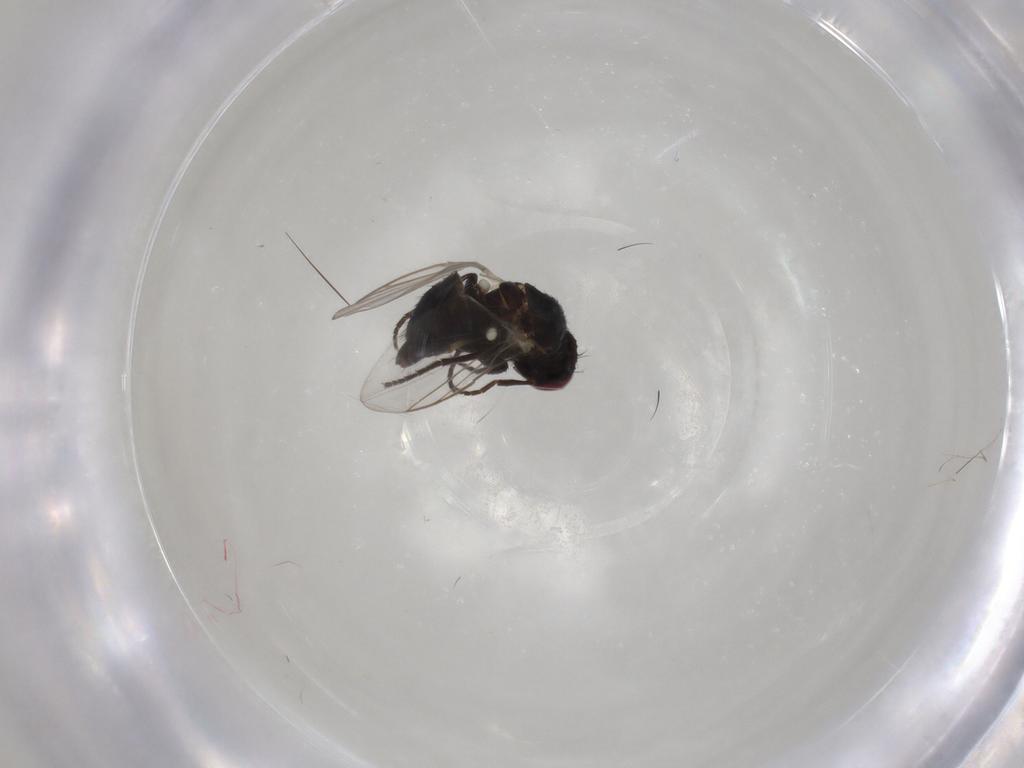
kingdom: Animalia
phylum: Arthropoda
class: Insecta
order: Diptera
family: Agromyzidae
